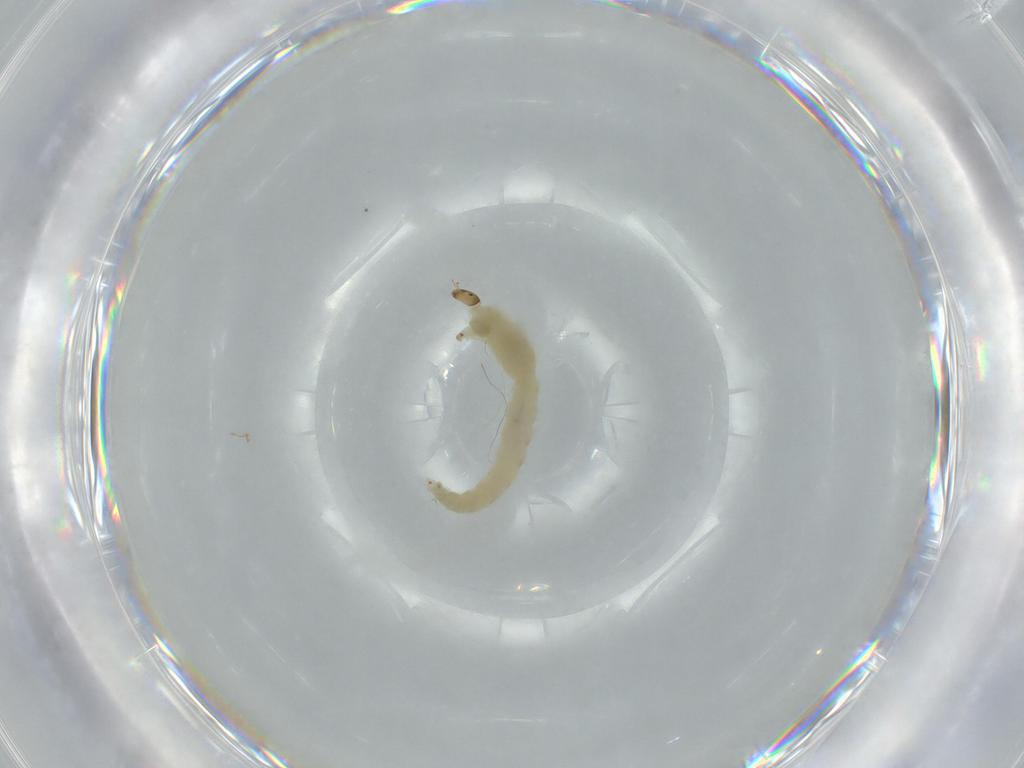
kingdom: Animalia
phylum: Arthropoda
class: Insecta
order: Diptera
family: Chironomidae
